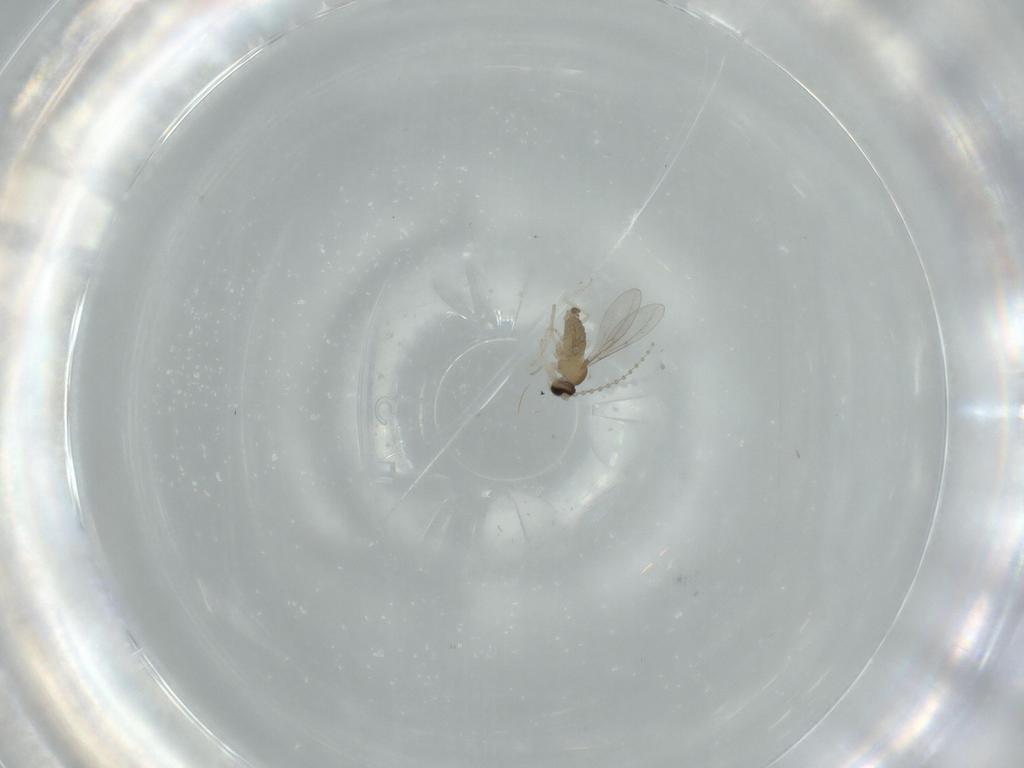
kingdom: Animalia
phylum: Arthropoda
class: Insecta
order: Diptera
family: Cecidomyiidae
